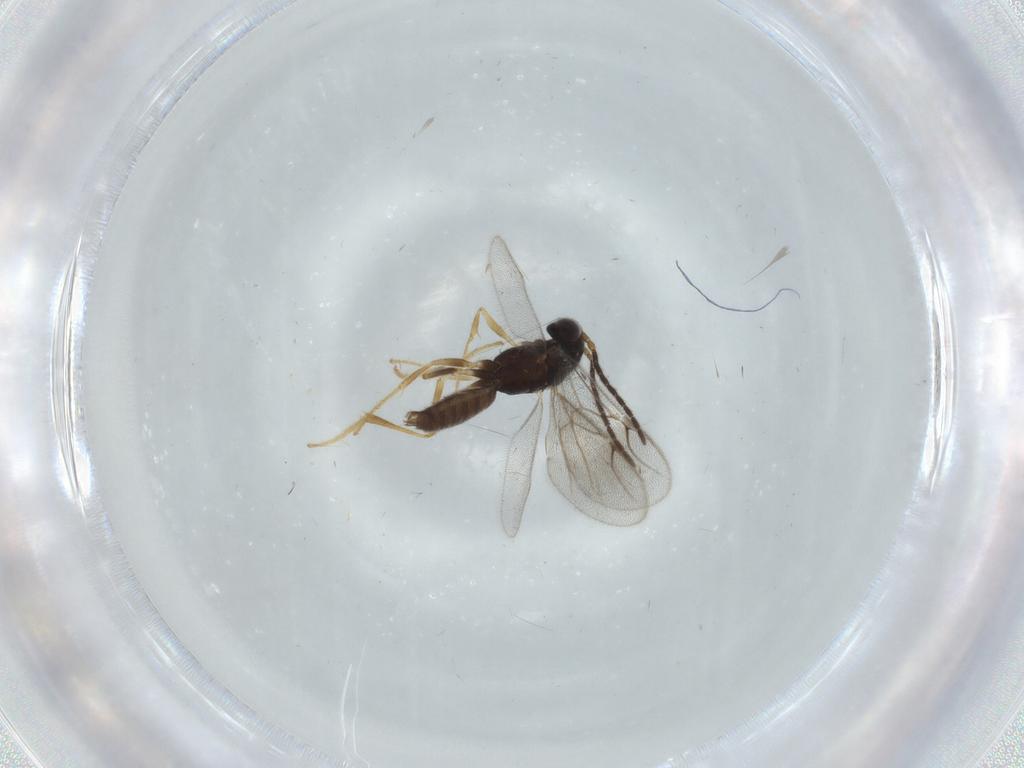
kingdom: Animalia
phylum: Arthropoda
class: Insecta
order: Hymenoptera
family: Dryinidae
